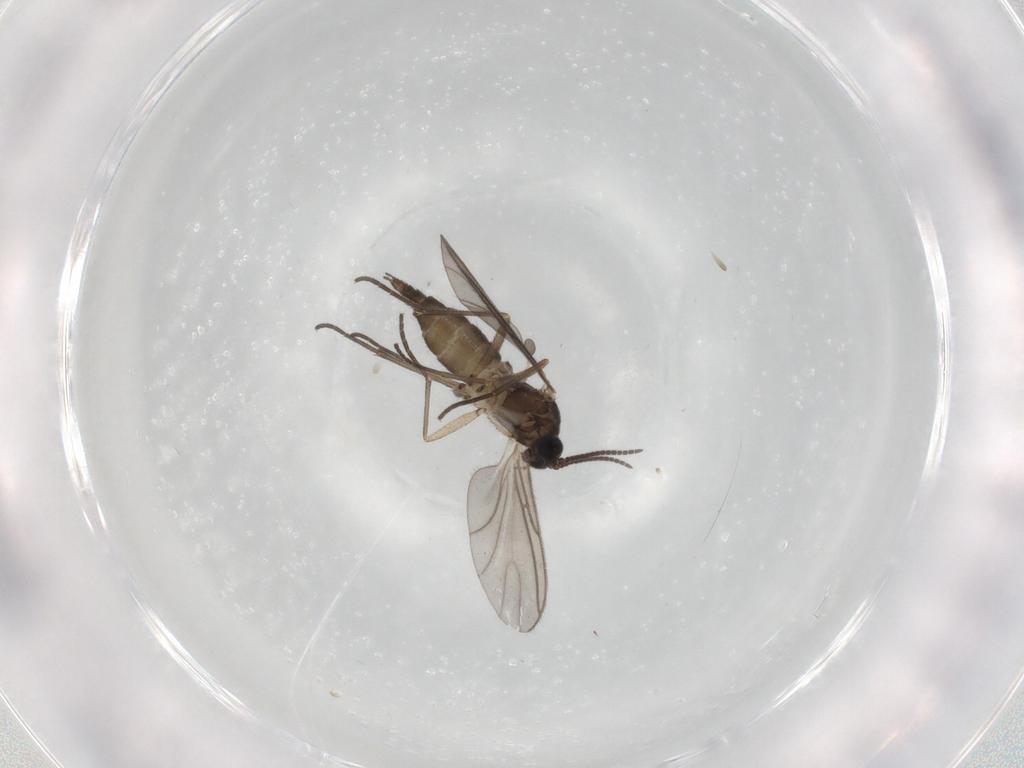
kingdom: Animalia
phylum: Arthropoda
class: Insecta
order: Diptera
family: Sciaridae
